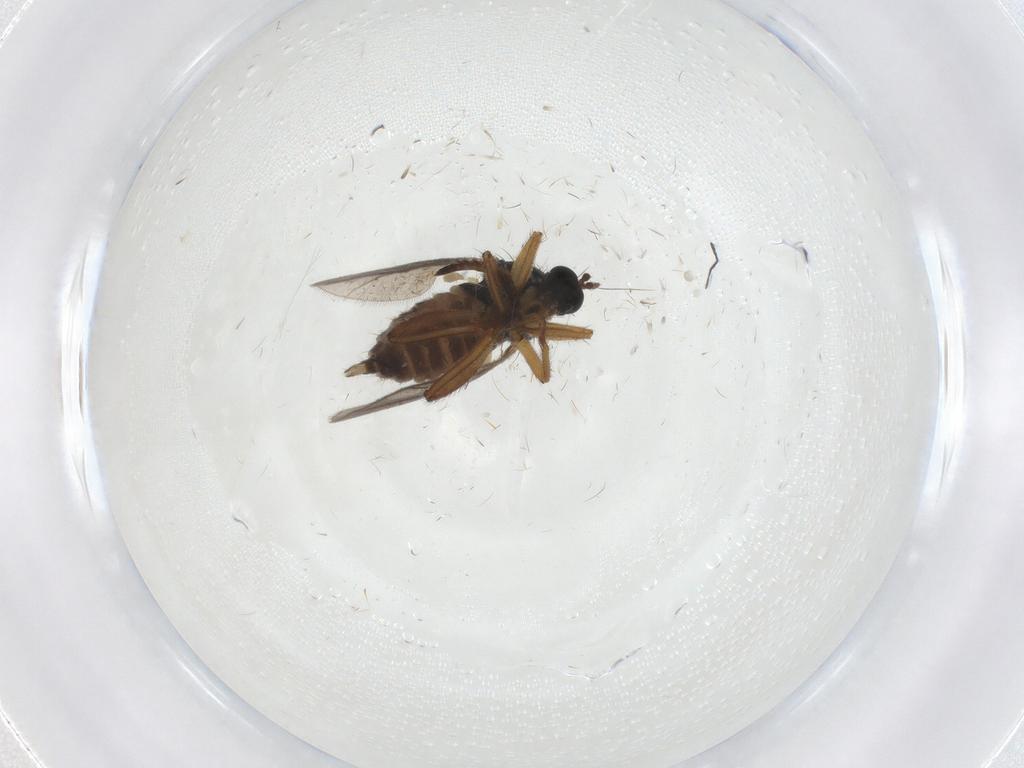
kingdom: Animalia
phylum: Arthropoda
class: Insecta
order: Diptera
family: Hybotidae
